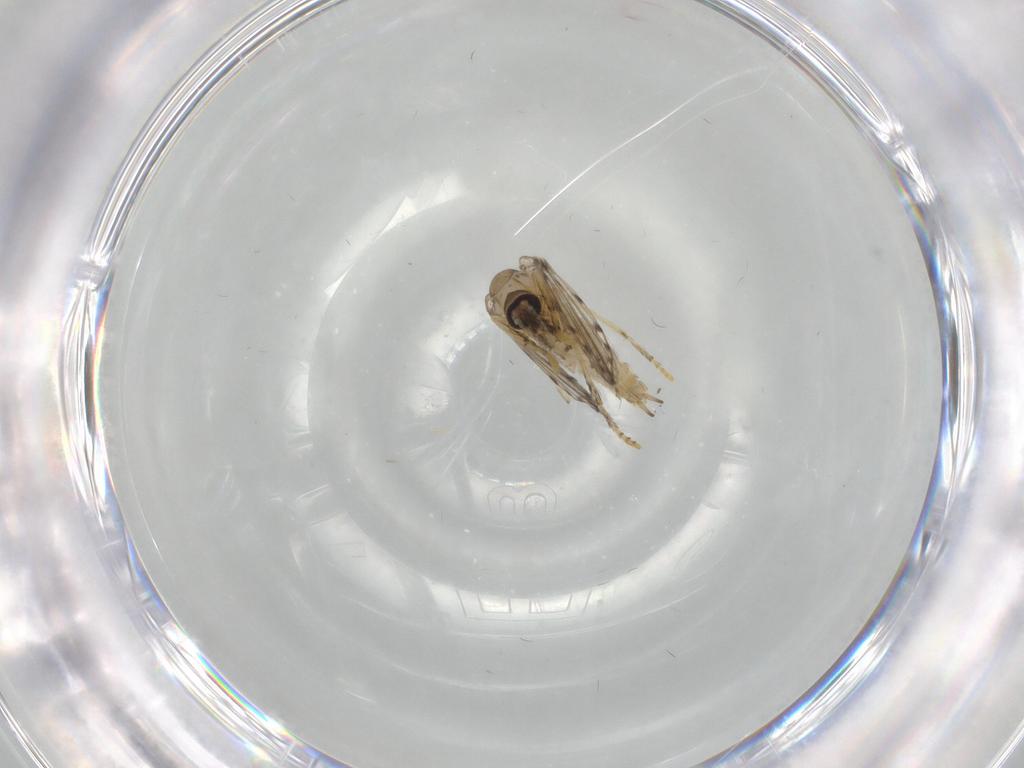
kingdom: Animalia
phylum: Arthropoda
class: Insecta
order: Diptera
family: Psychodidae
